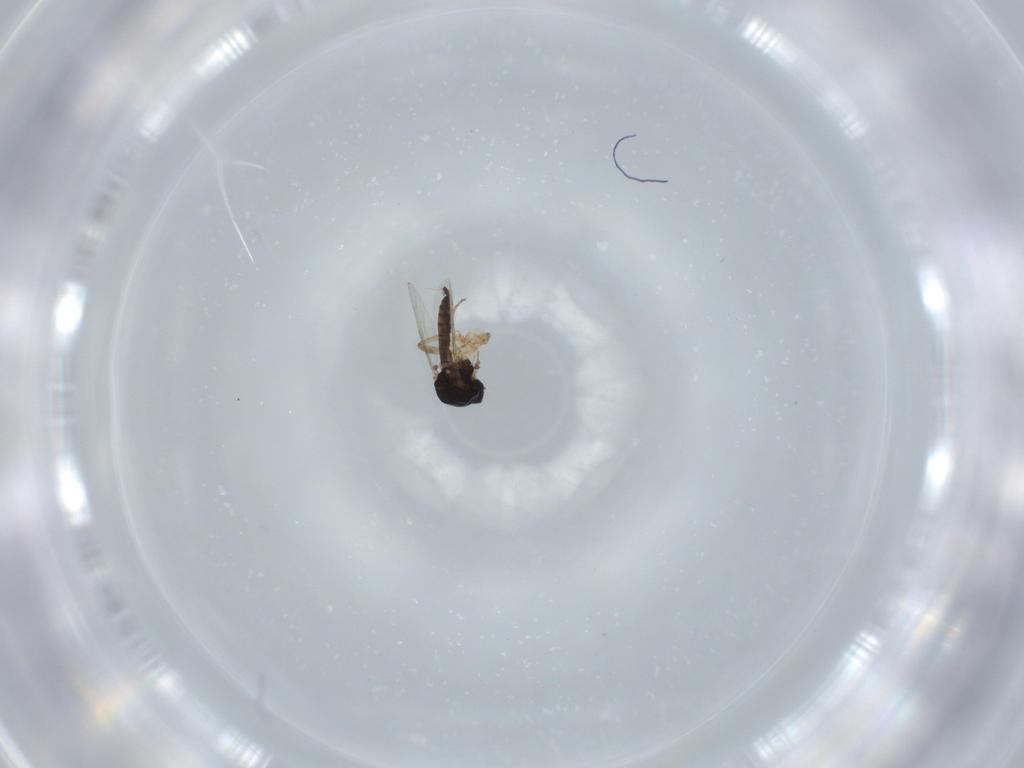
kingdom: Animalia
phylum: Arthropoda
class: Insecta
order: Diptera
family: Ceratopogonidae
